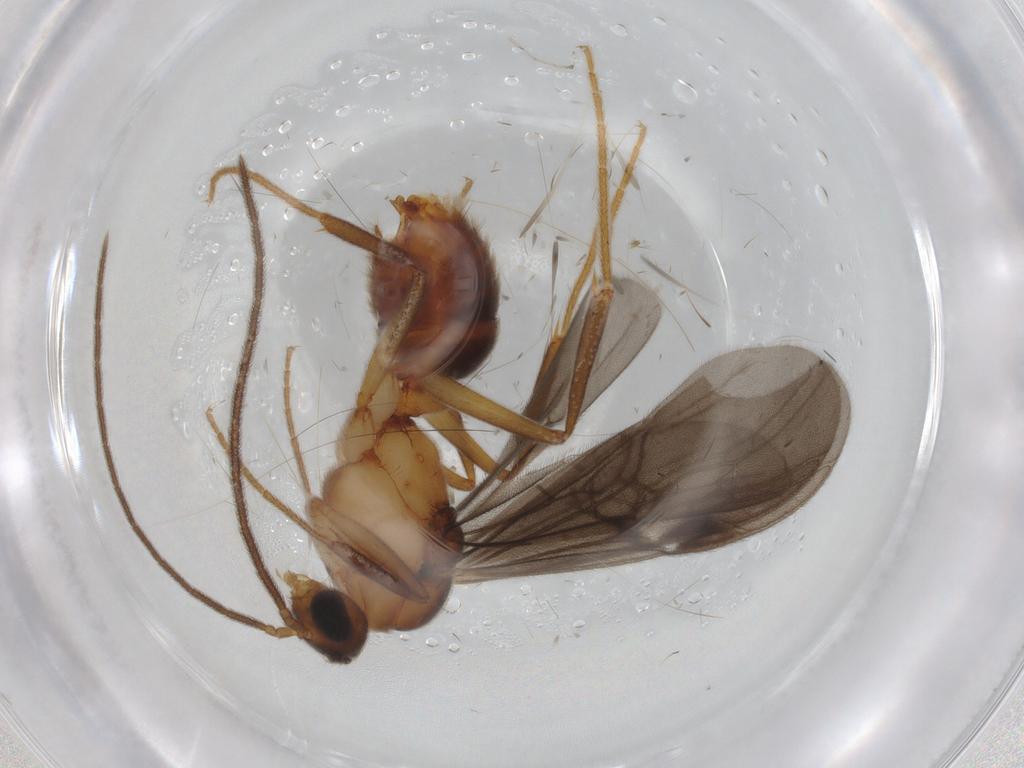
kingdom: Animalia
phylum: Arthropoda
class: Insecta
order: Hymenoptera
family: Formicidae
